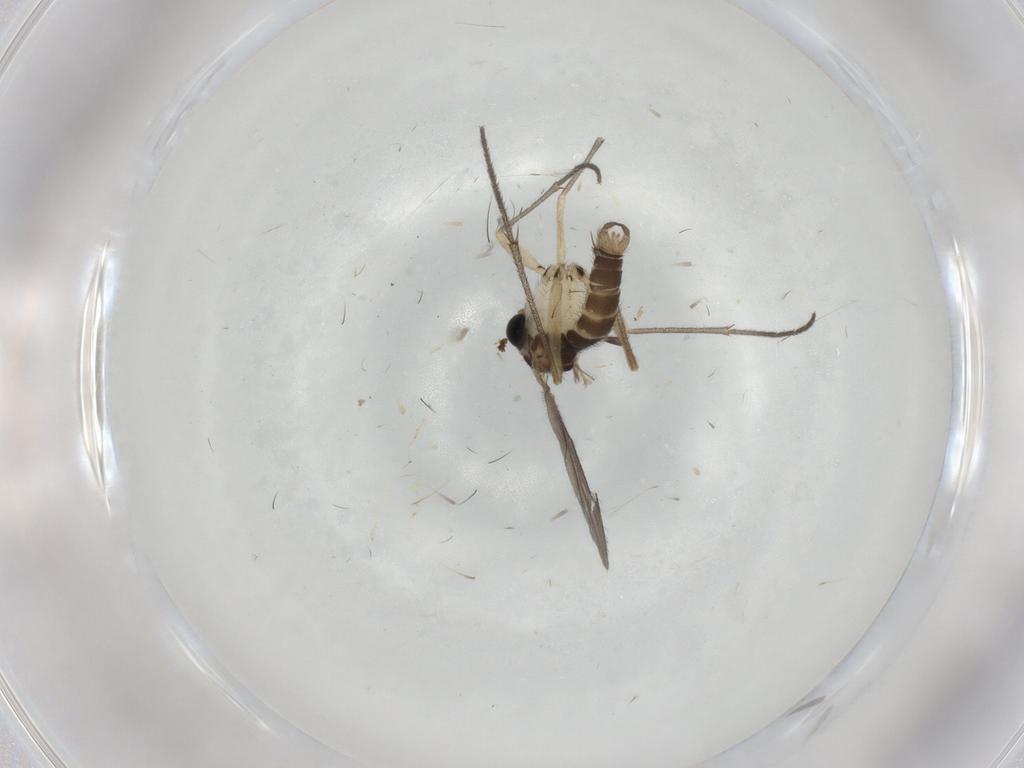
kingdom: Animalia
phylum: Arthropoda
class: Insecta
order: Diptera
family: Sciaridae
